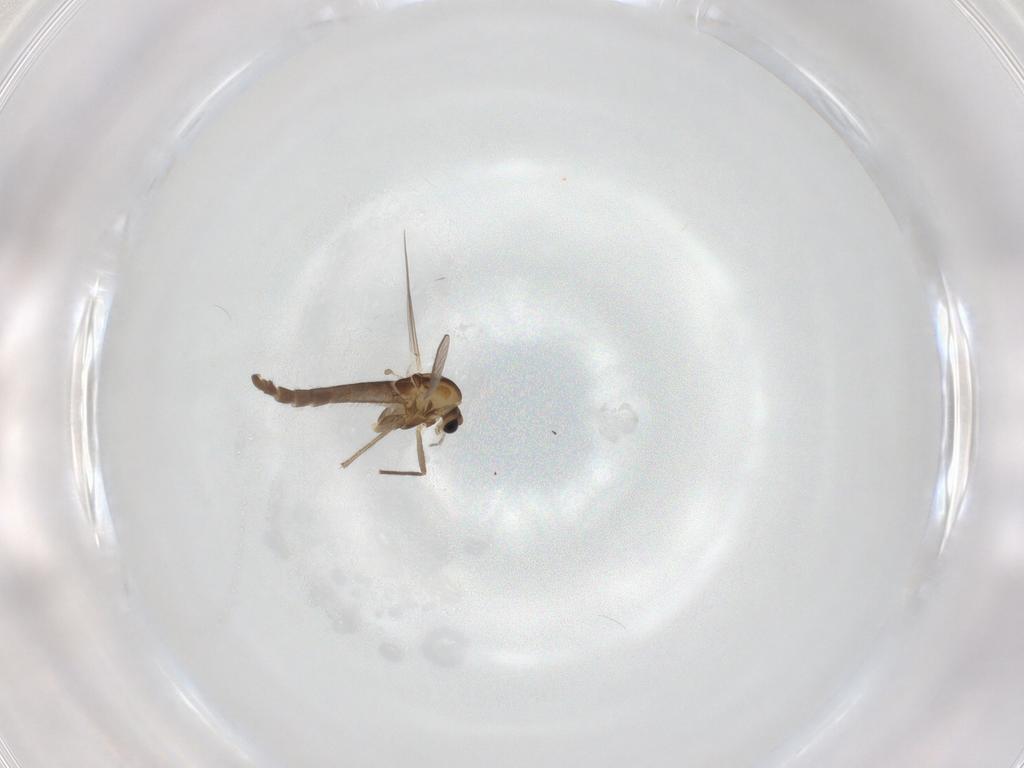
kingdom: Animalia
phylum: Arthropoda
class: Insecta
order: Diptera
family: Chironomidae
